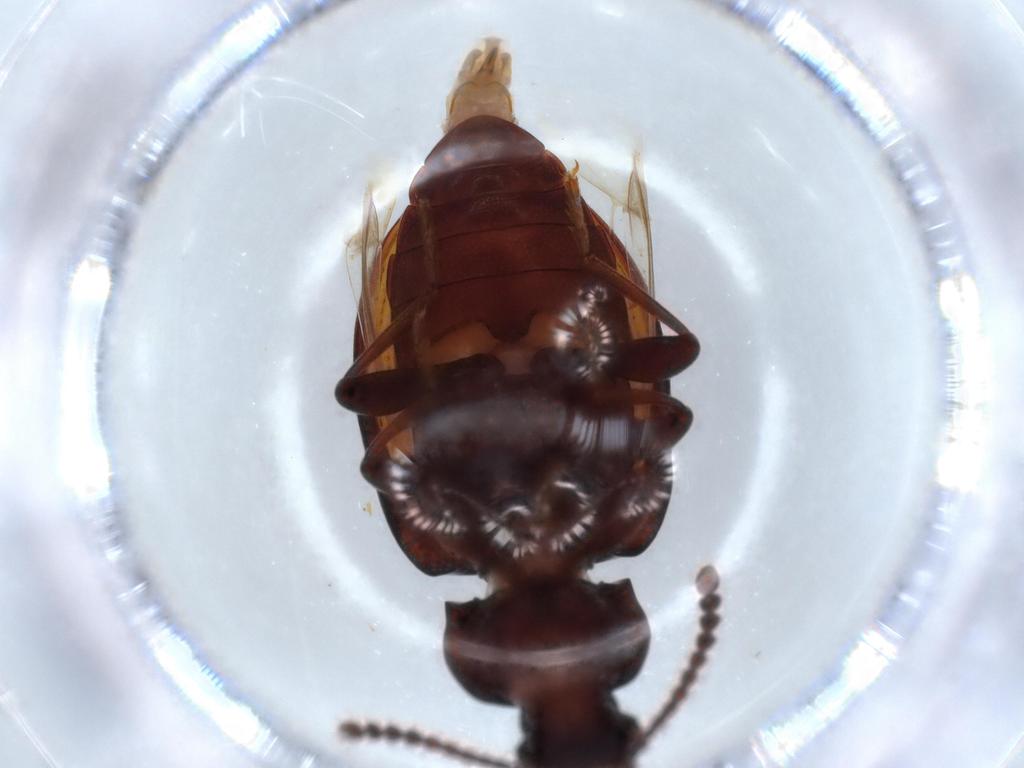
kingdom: Animalia
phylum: Arthropoda
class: Insecta
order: Coleoptera
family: Tenebrionidae
